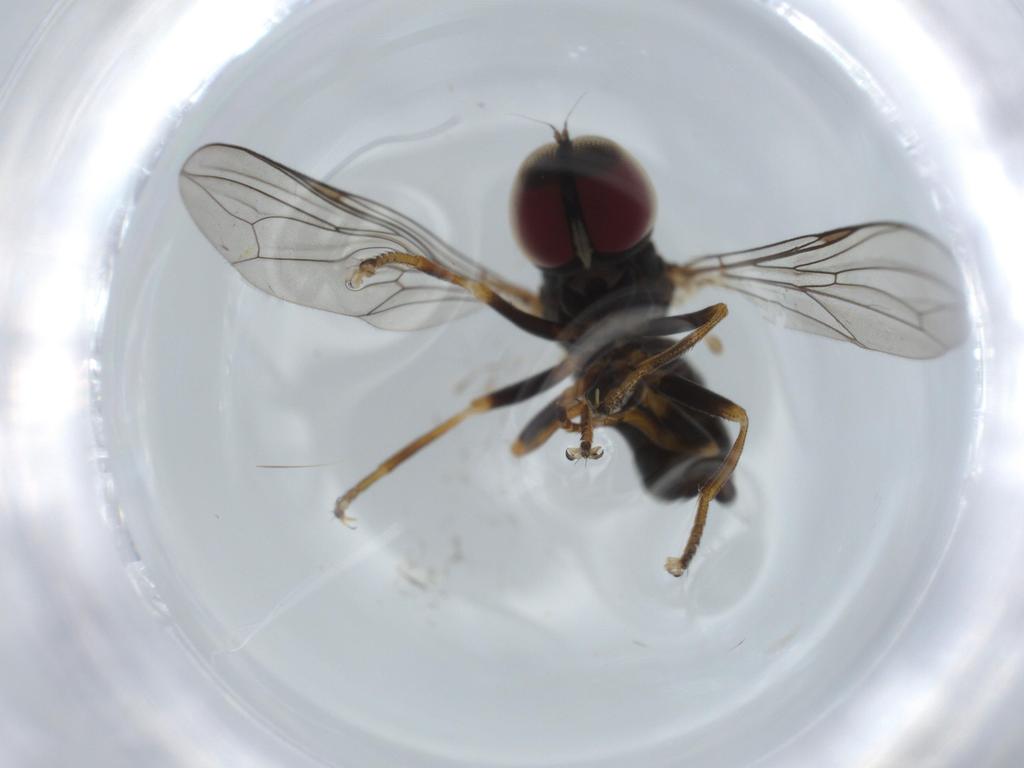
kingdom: Animalia
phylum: Arthropoda
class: Insecta
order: Diptera
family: Pipunculidae
